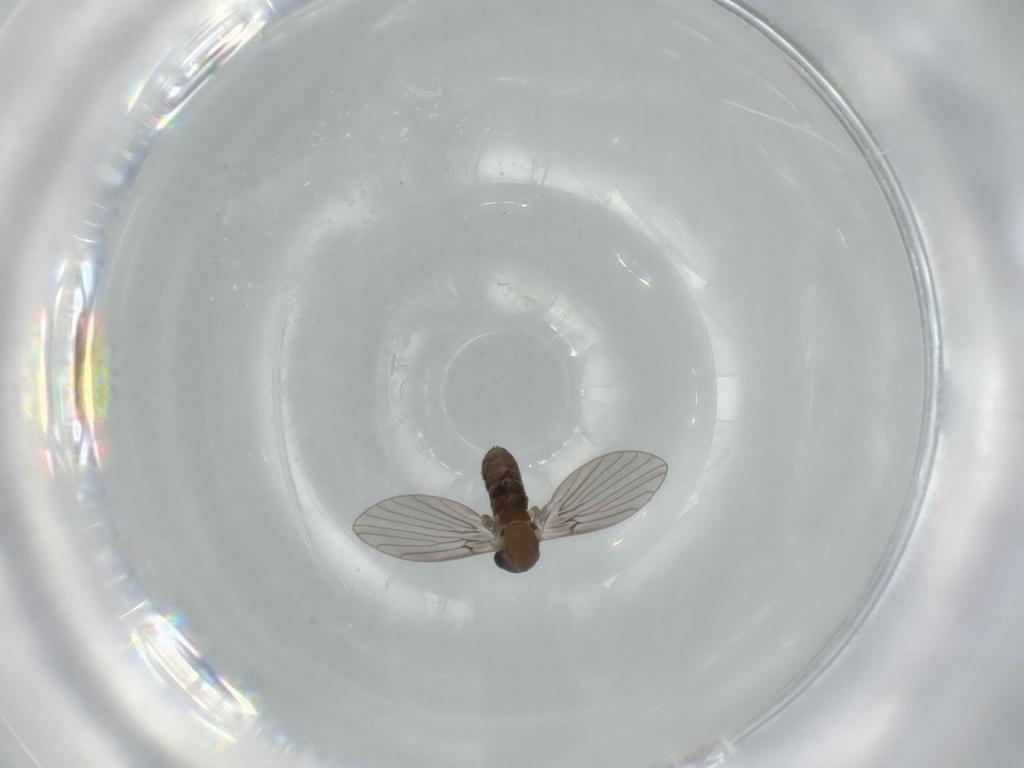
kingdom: Animalia
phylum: Arthropoda
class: Insecta
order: Diptera
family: Psychodidae
